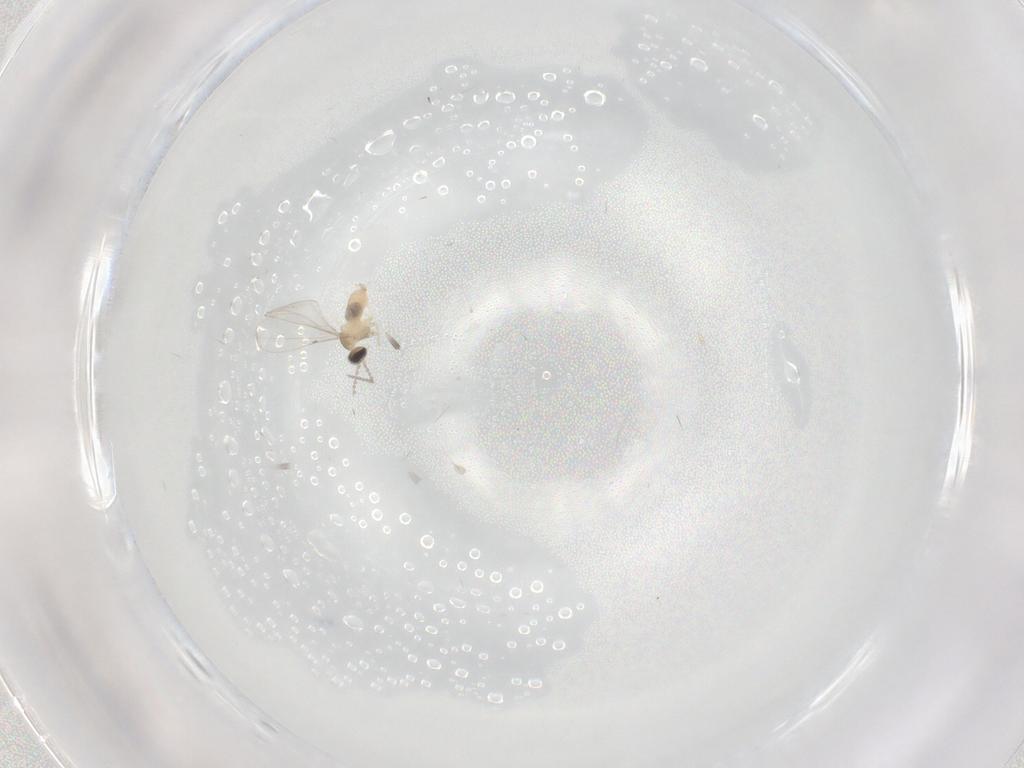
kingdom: Animalia
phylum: Arthropoda
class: Insecta
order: Diptera
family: Cecidomyiidae
